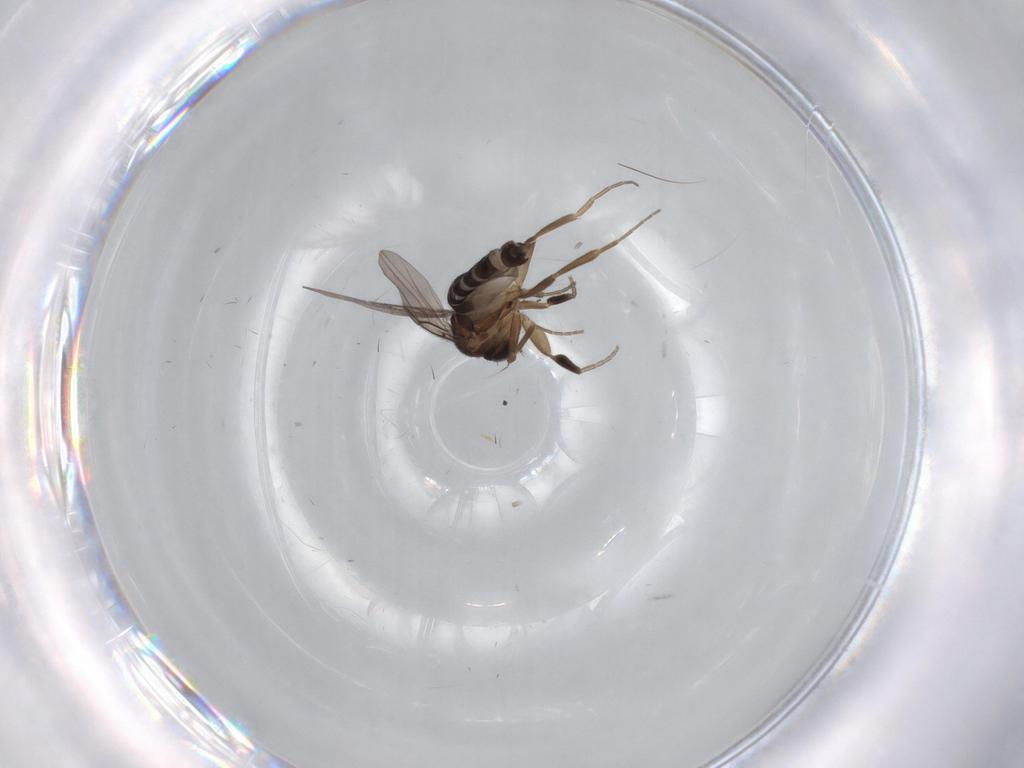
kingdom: Animalia
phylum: Arthropoda
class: Insecta
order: Diptera
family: Phoridae
